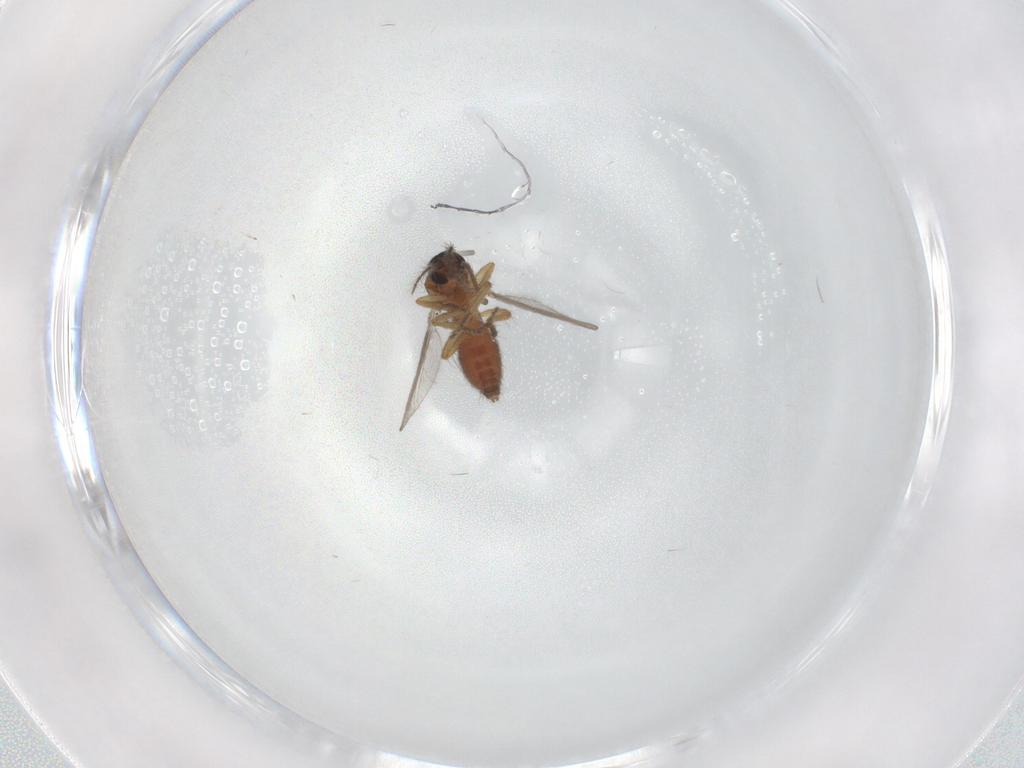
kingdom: Animalia
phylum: Arthropoda
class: Insecta
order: Diptera
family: Ceratopogonidae
